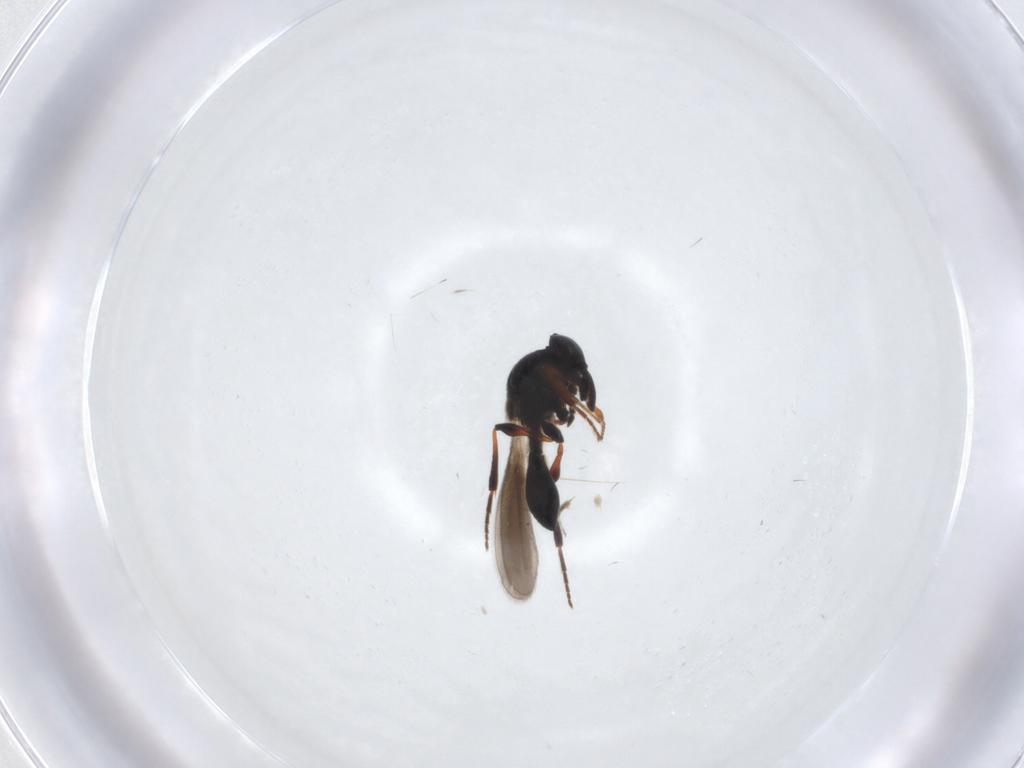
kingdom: Animalia
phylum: Arthropoda
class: Insecta
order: Hymenoptera
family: Platygastridae
